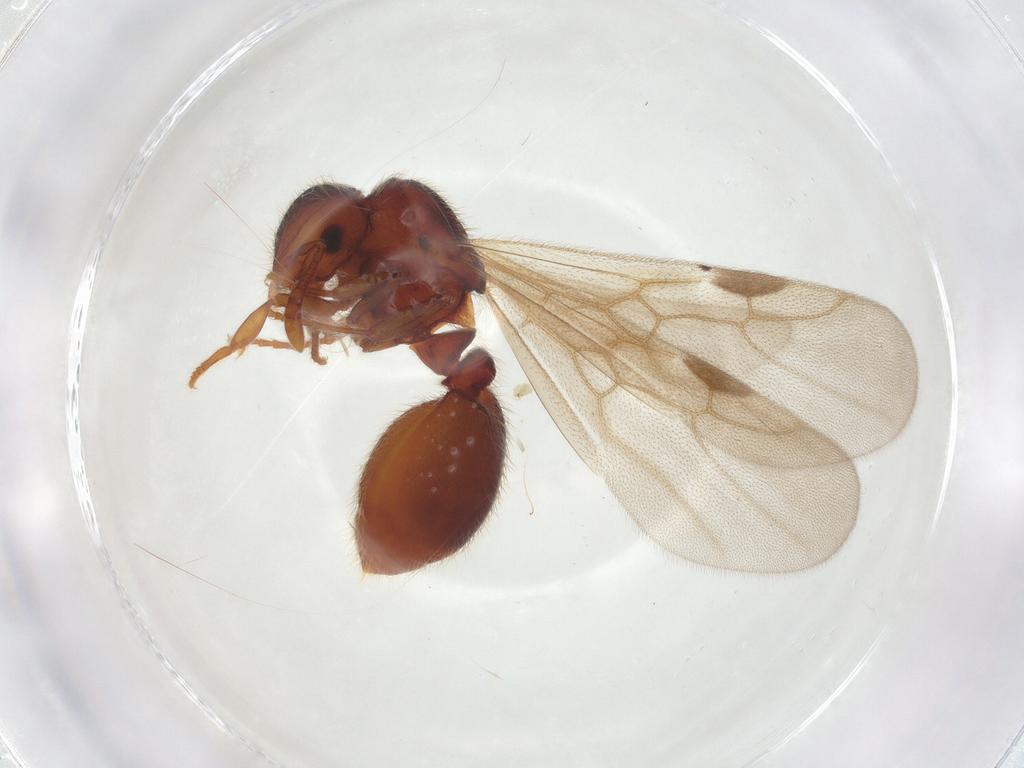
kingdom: Animalia
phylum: Arthropoda
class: Insecta
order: Hymenoptera
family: Formicidae
